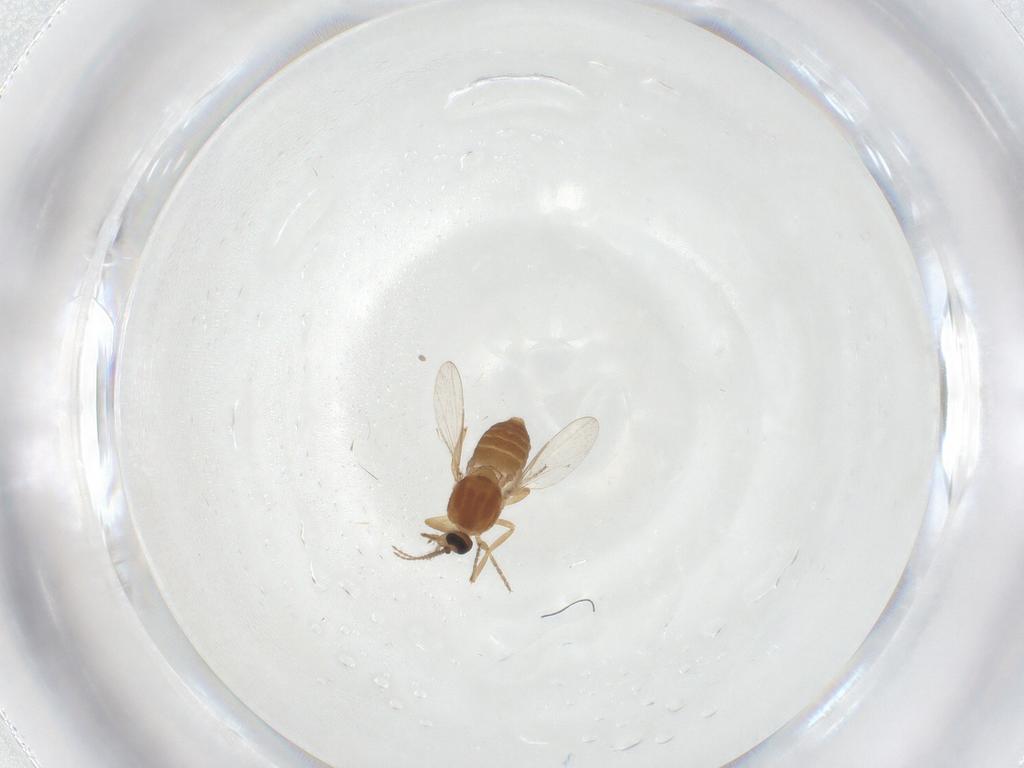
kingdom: Animalia
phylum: Arthropoda
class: Insecta
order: Diptera
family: Ceratopogonidae
